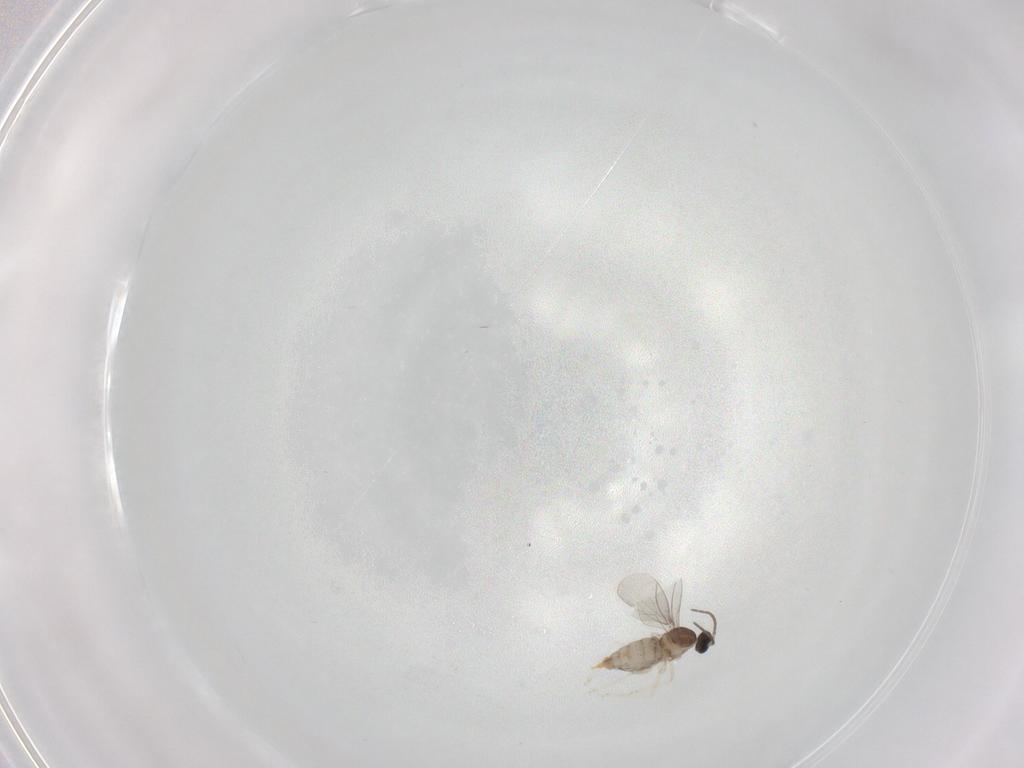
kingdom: Animalia
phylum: Arthropoda
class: Insecta
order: Diptera
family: Cecidomyiidae
